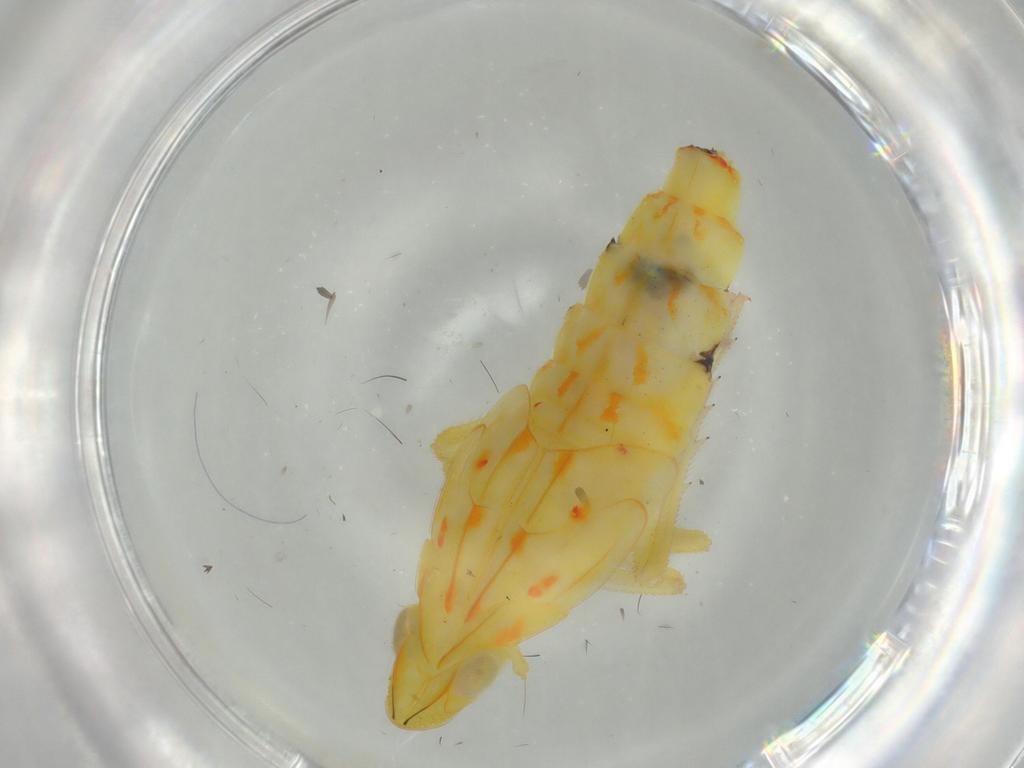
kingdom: Animalia
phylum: Arthropoda
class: Insecta
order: Hemiptera
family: Tropiduchidae
